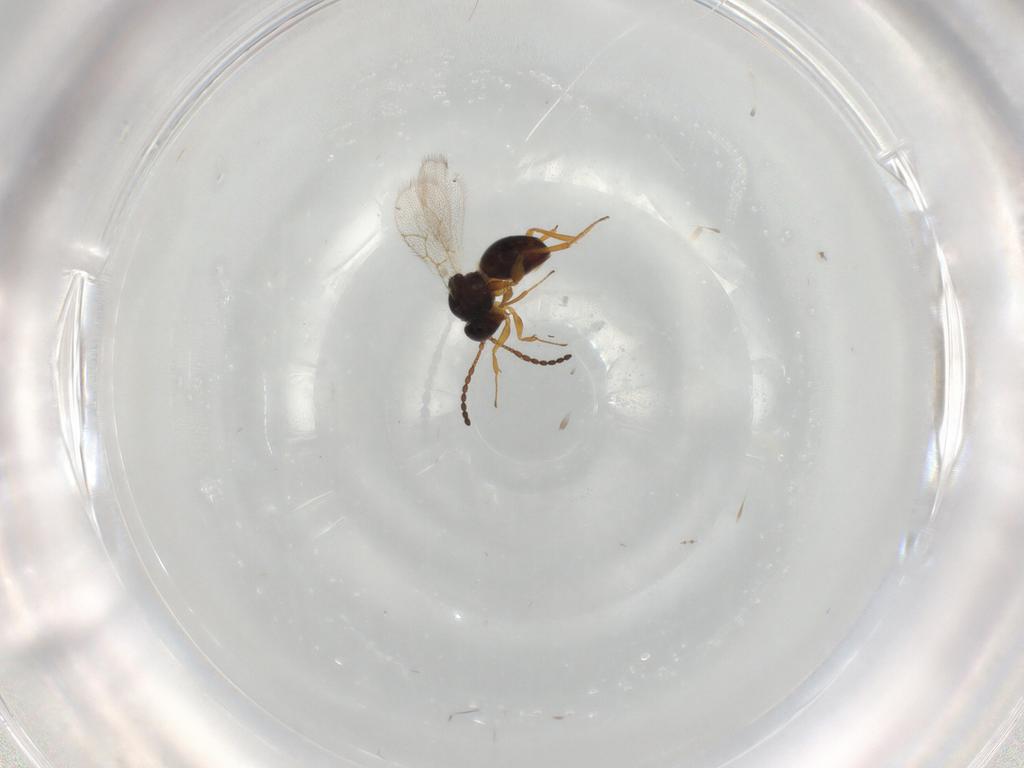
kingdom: Animalia
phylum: Arthropoda
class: Insecta
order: Hymenoptera
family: Figitidae
